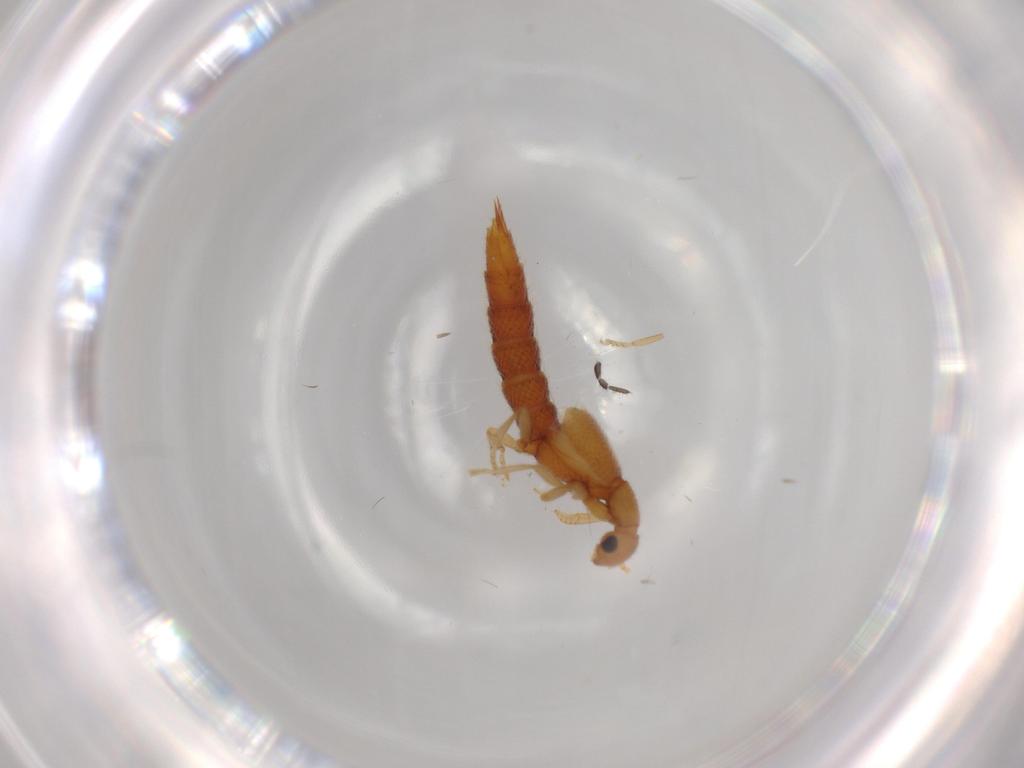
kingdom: Animalia
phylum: Arthropoda
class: Insecta
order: Coleoptera
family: Curculionidae
